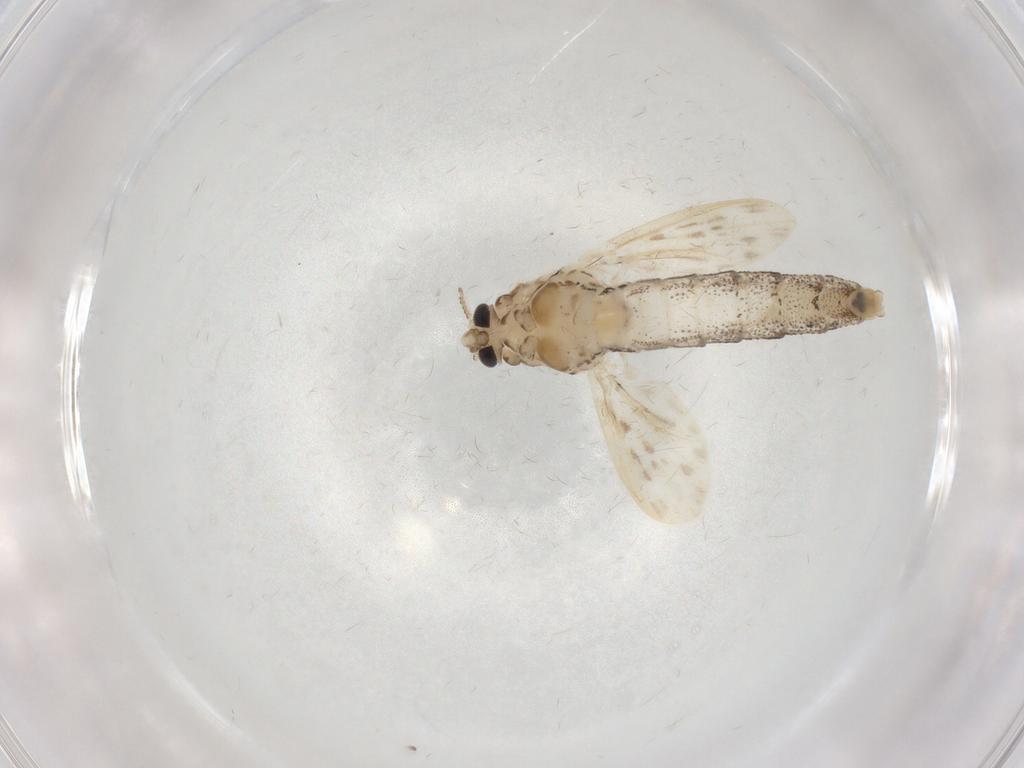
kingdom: Animalia
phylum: Arthropoda
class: Insecta
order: Diptera
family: Chaoboridae
